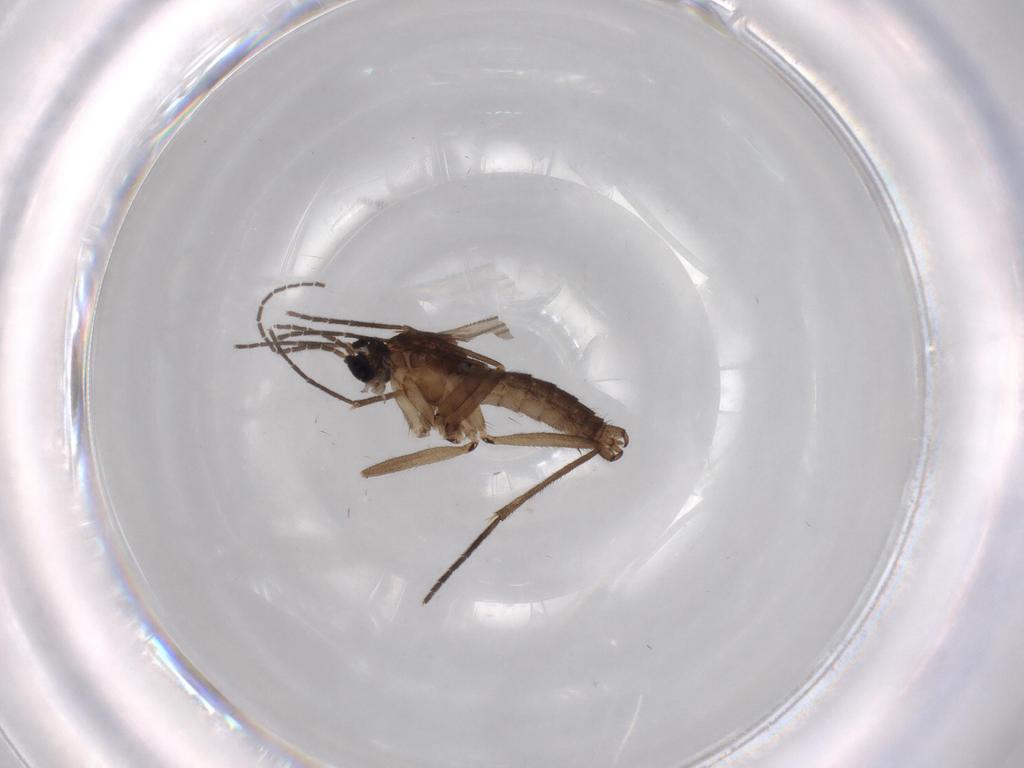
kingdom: Animalia
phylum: Arthropoda
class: Insecta
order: Diptera
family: Sciaridae
